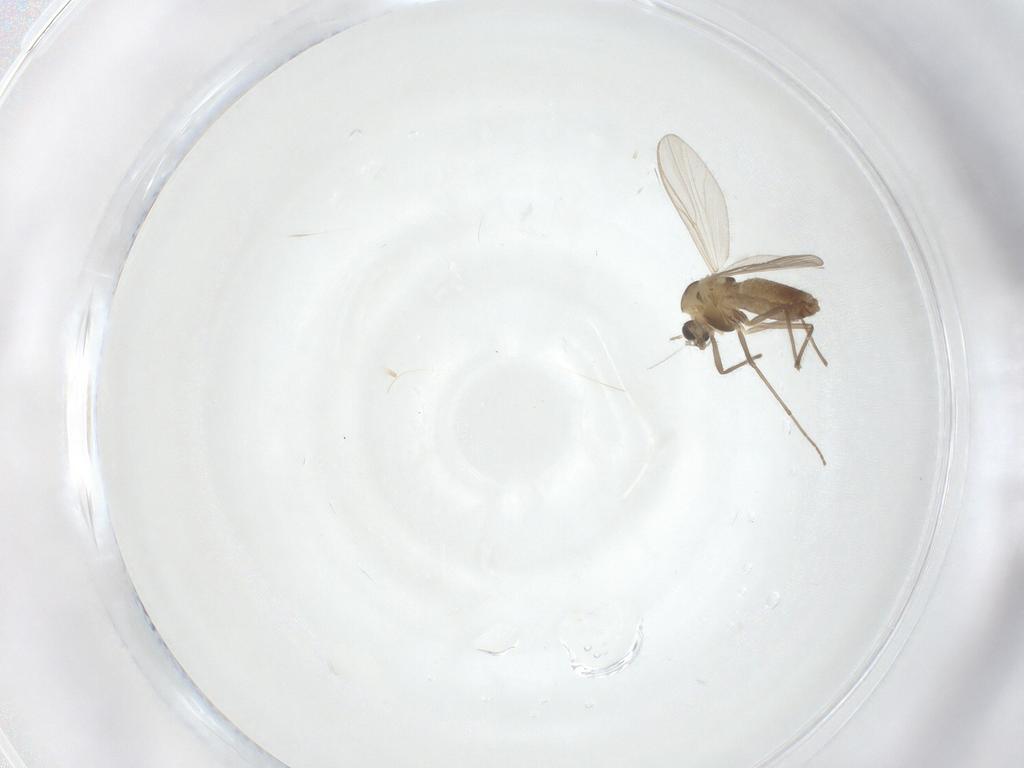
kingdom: Animalia
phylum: Arthropoda
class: Insecta
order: Diptera
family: Chironomidae
